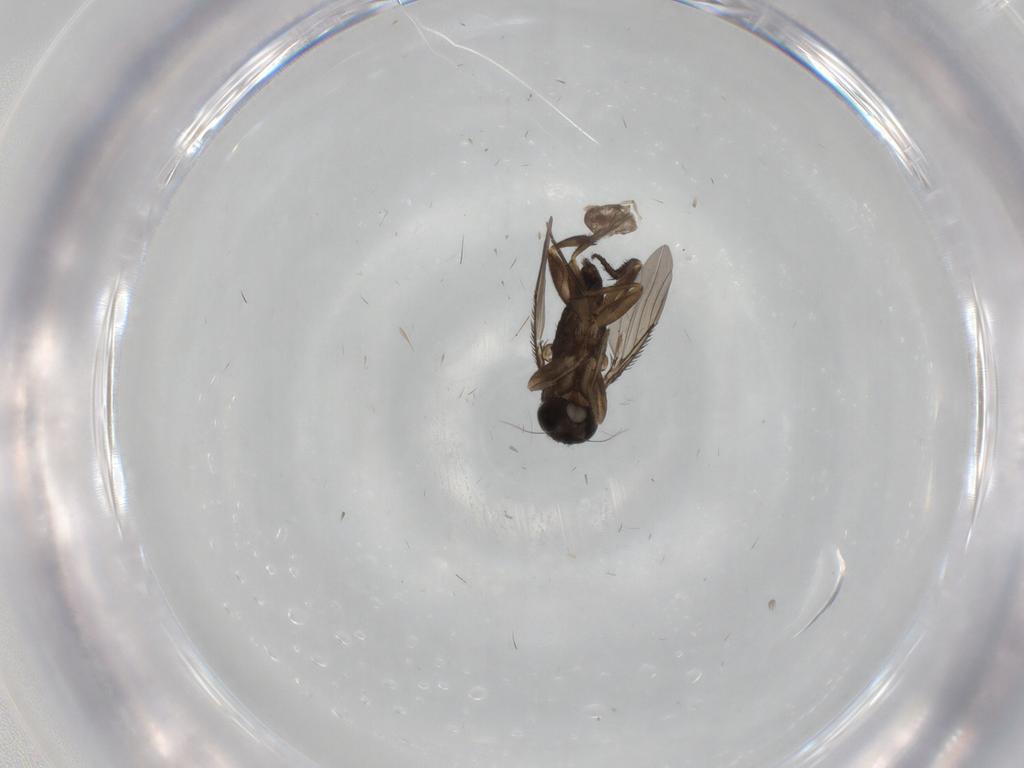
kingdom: Animalia
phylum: Arthropoda
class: Insecta
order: Diptera
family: Phoridae
